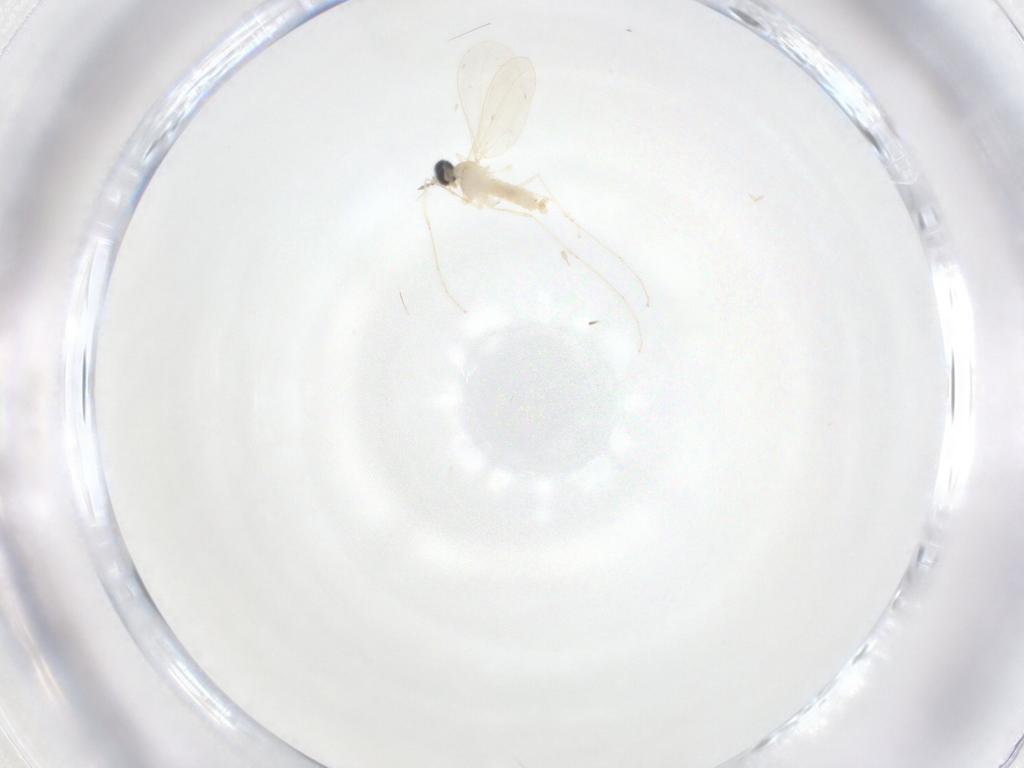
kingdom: Animalia
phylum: Arthropoda
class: Insecta
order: Diptera
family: Cecidomyiidae
